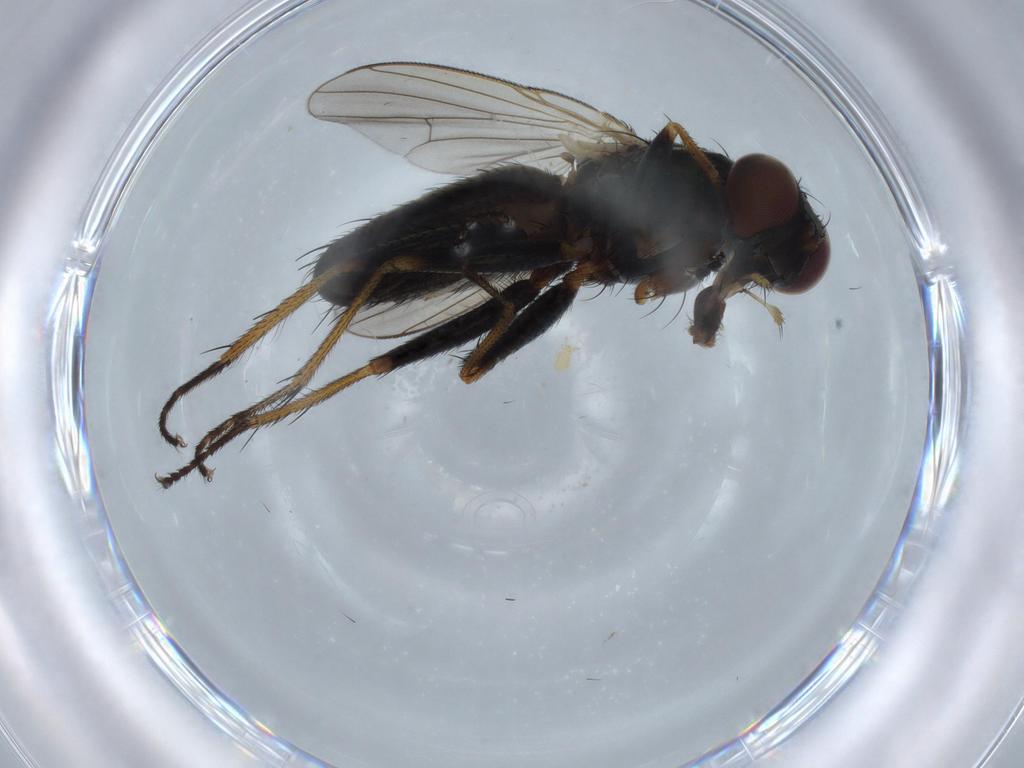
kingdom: Animalia
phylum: Arthropoda
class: Insecta
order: Diptera
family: Muscidae
